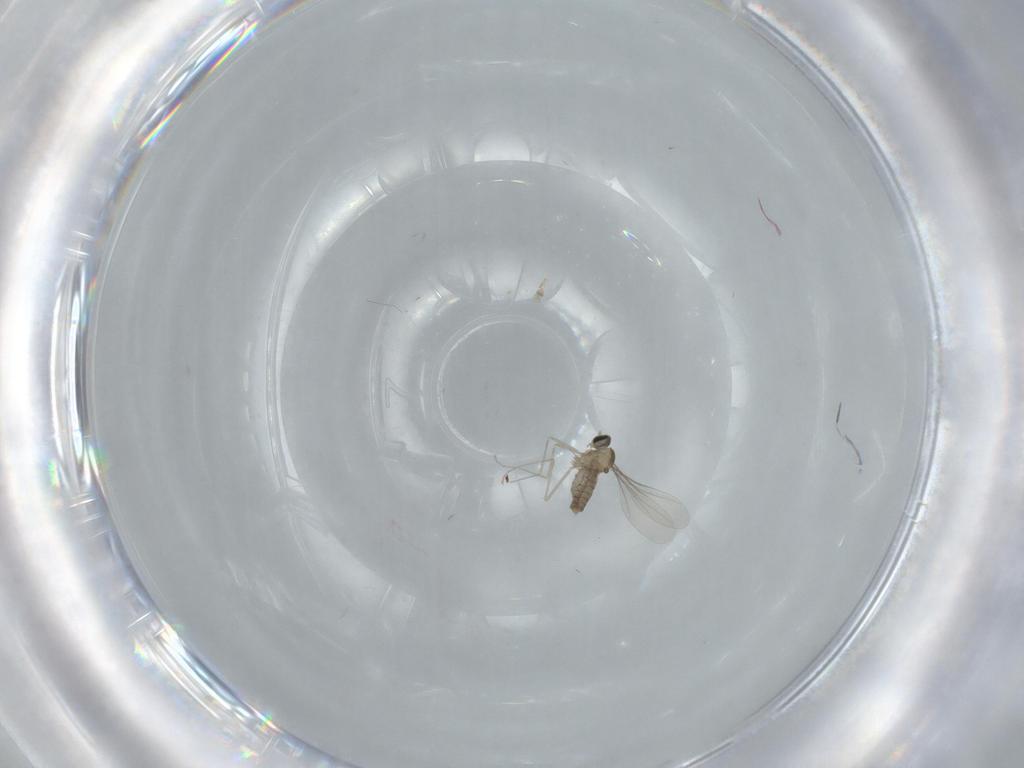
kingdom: Animalia
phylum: Arthropoda
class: Insecta
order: Diptera
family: Cecidomyiidae
